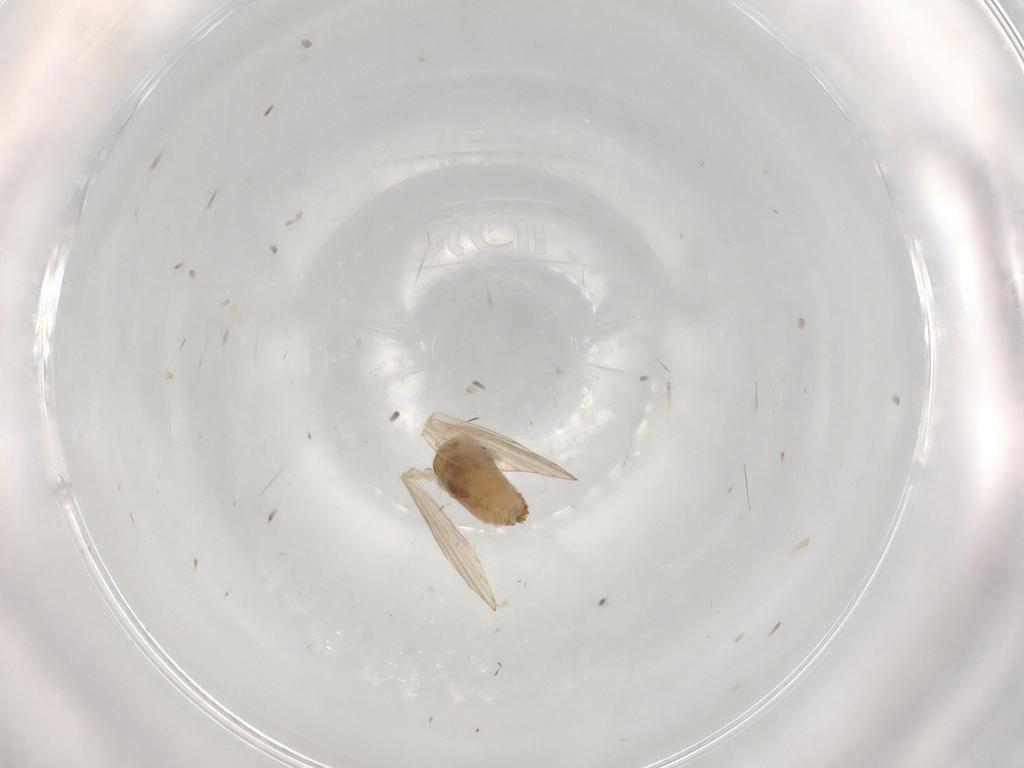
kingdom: Animalia
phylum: Arthropoda
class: Insecta
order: Diptera
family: Psychodidae
